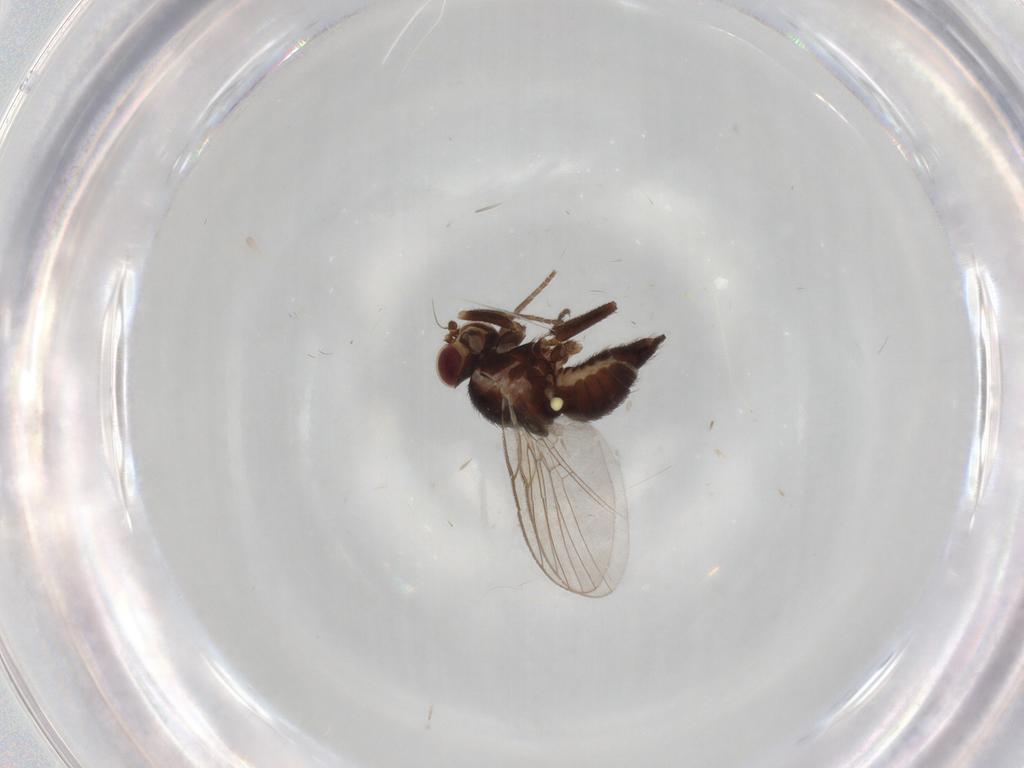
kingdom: Animalia
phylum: Arthropoda
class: Insecta
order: Diptera
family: Cecidomyiidae
